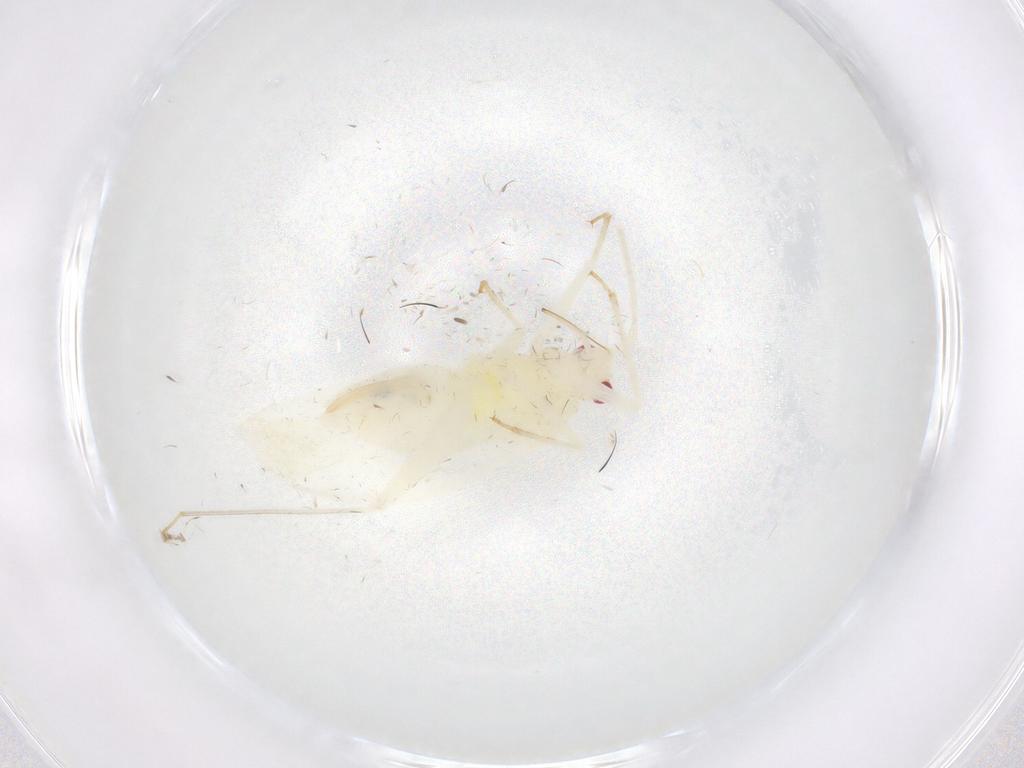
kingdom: Animalia
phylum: Arthropoda
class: Insecta
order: Hemiptera
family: Miridae
